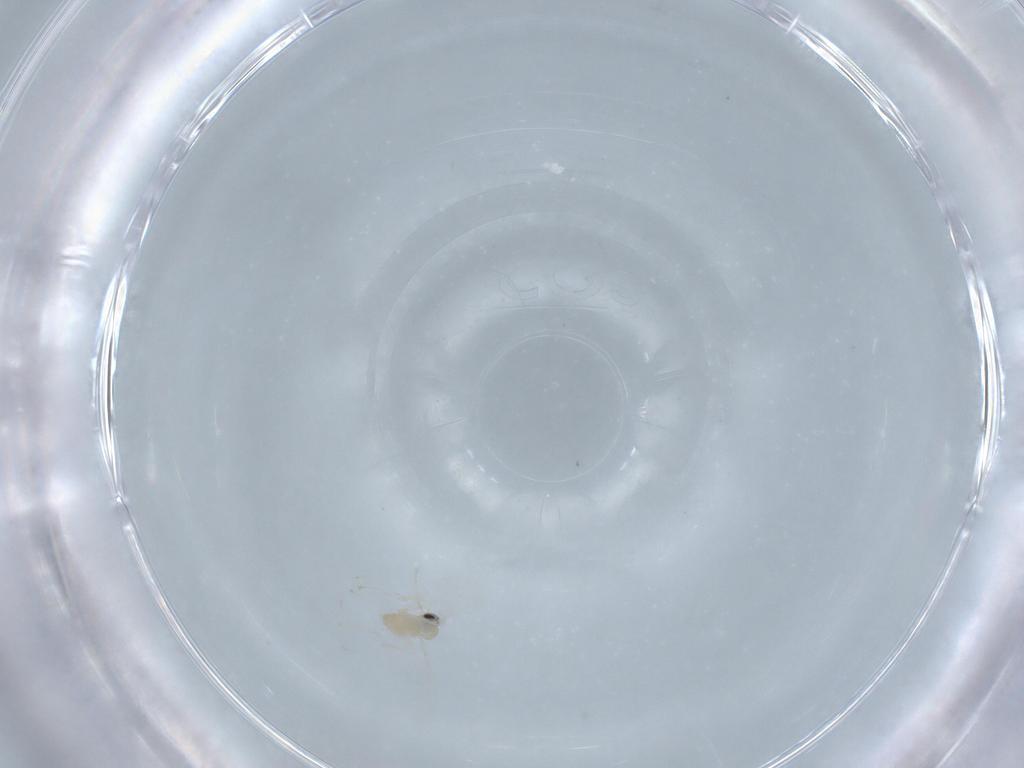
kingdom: Animalia
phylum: Arthropoda
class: Insecta
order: Diptera
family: Cecidomyiidae
